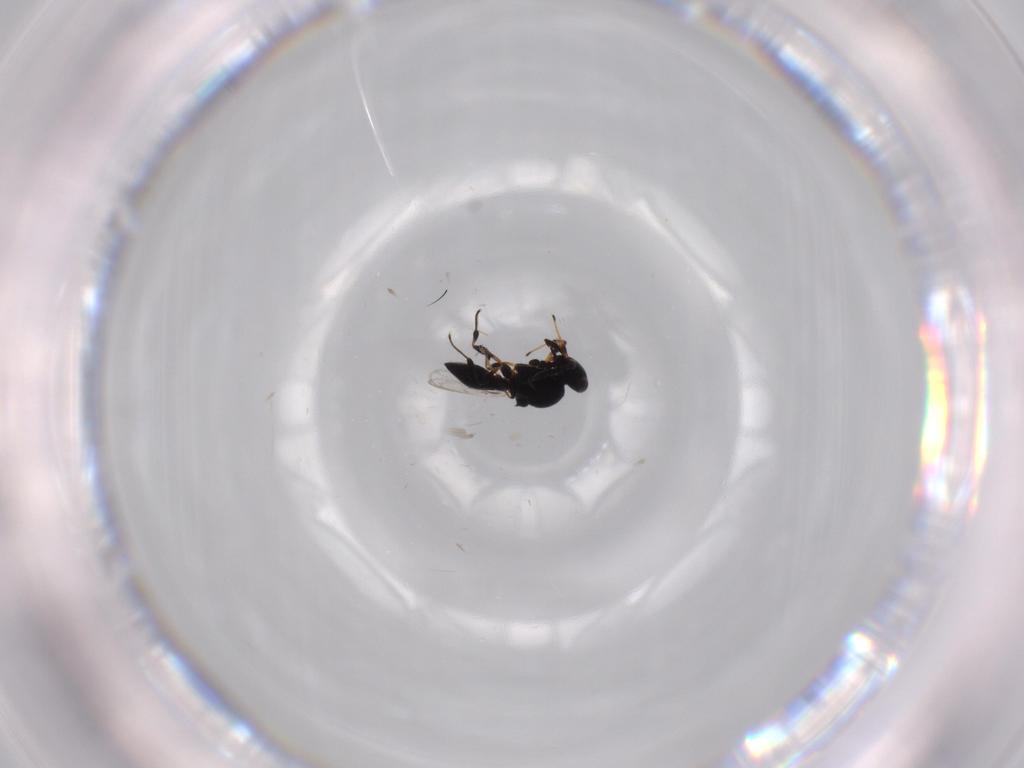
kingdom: Animalia
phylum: Arthropoda
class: Insecta
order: Hymenoptera
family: Platygastridae
